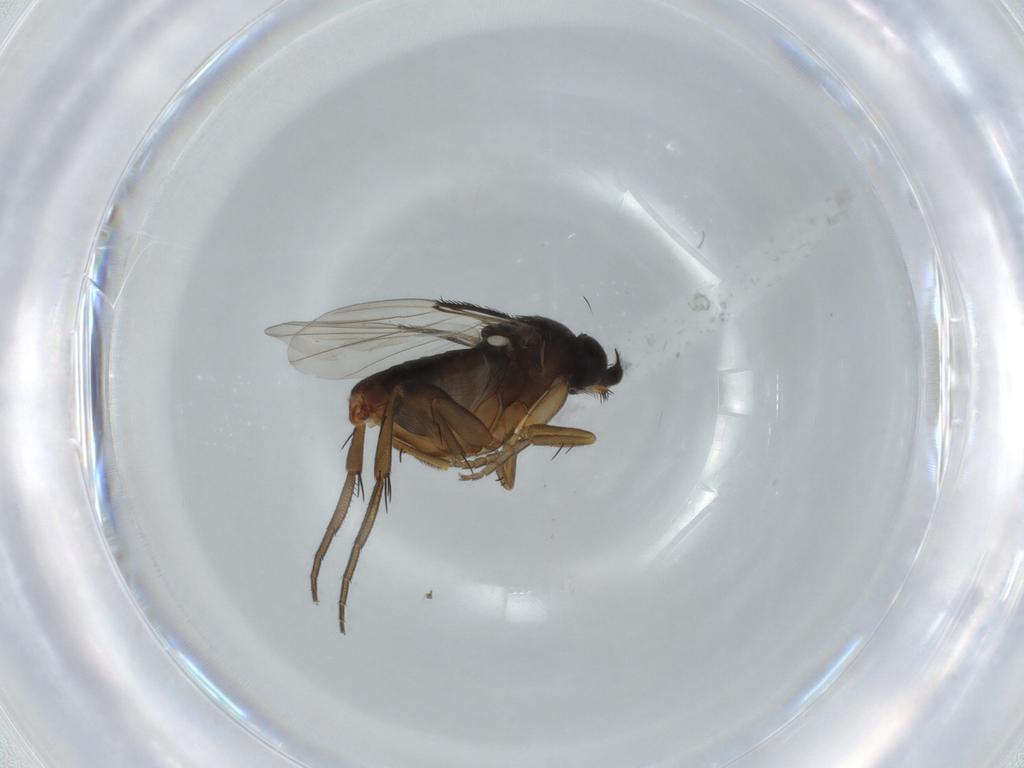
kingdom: Animalia
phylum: Arthropoda
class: Insecta
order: Diptera
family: Phoridae
